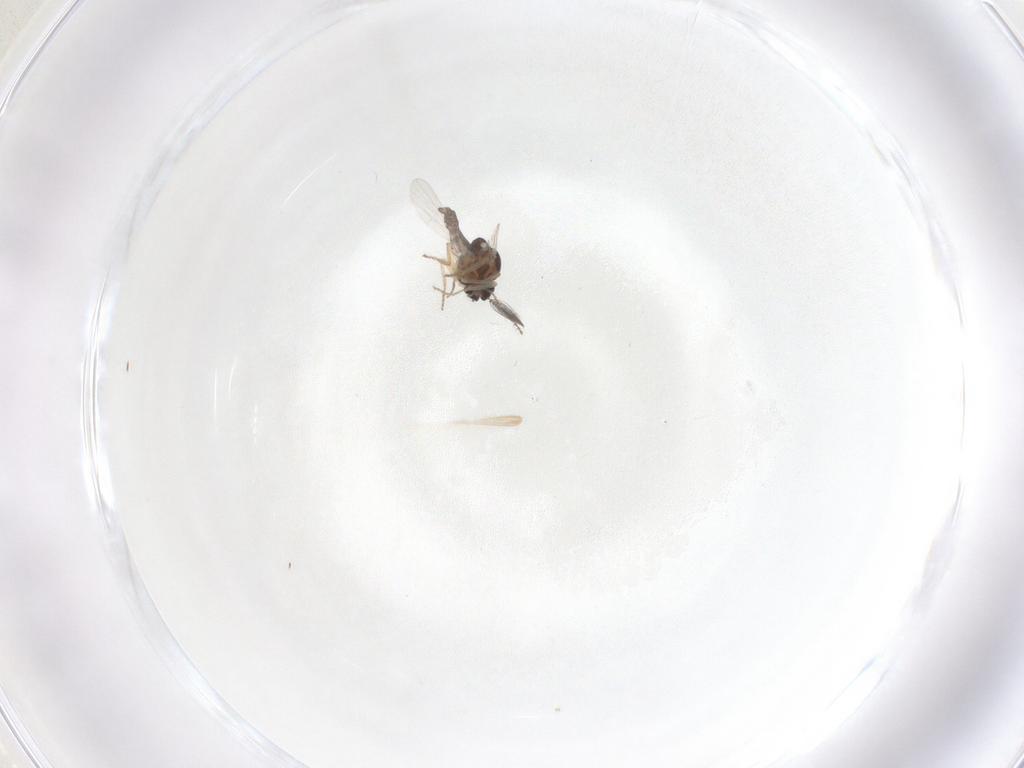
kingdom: Animalia
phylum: Arthropoda
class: Insecta
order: Diptera
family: Ceratopogonidae
